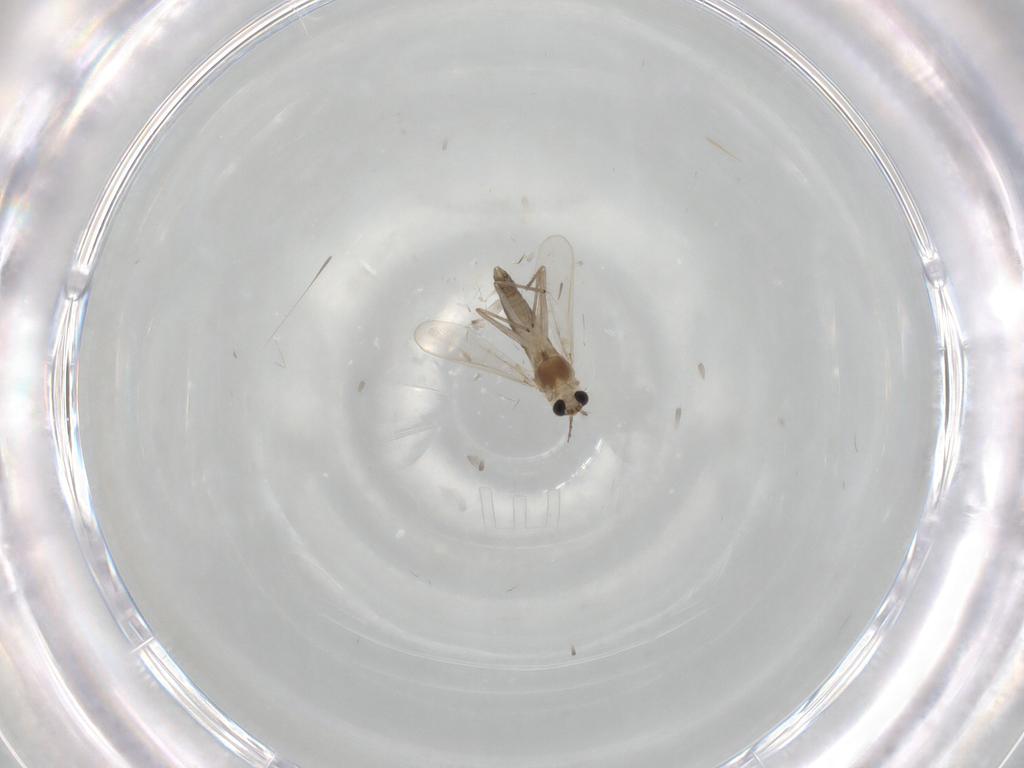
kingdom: Animalia
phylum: Arthropoda
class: Insecta
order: Diptera
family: Chironomidae
